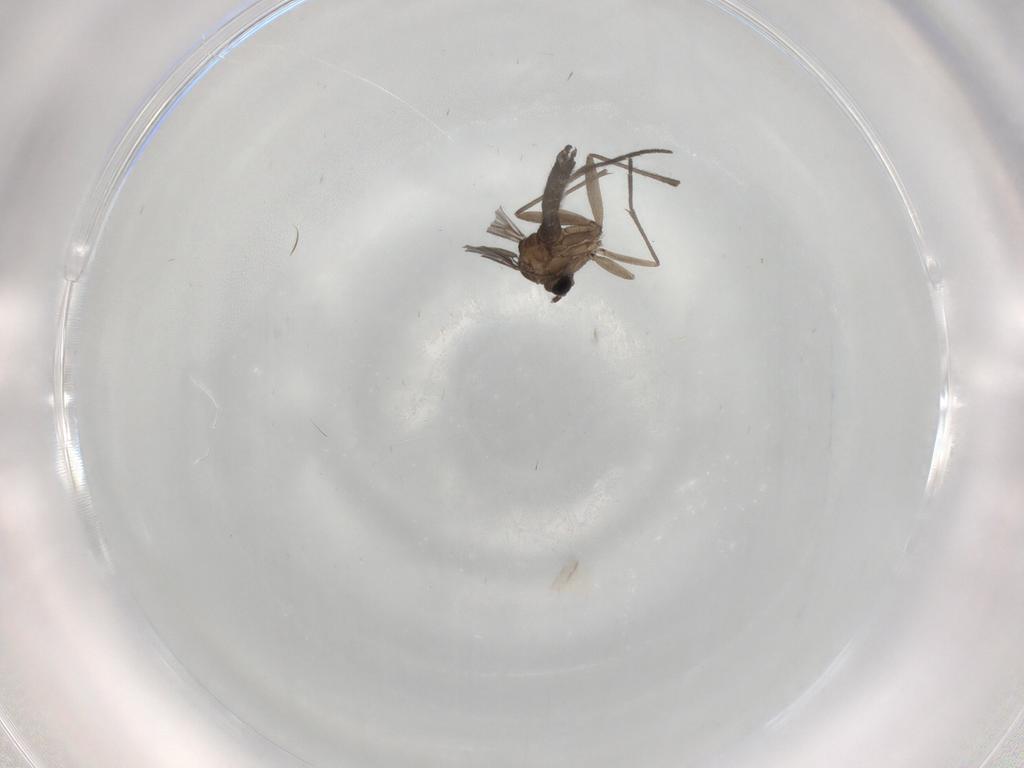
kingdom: Animalia
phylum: Arthropoda
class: Insecta
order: Diptera
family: Sciaridae
